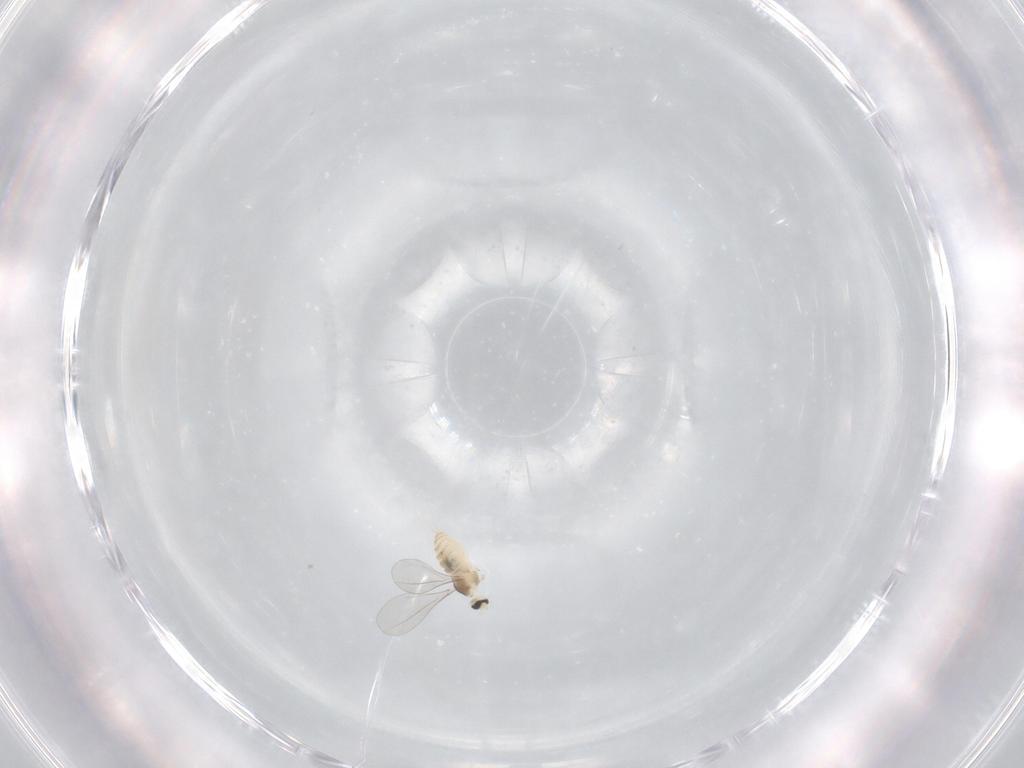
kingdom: Animalia
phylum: Arthropoda
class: Insecta
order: Diptera
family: Cecidomyiidae
